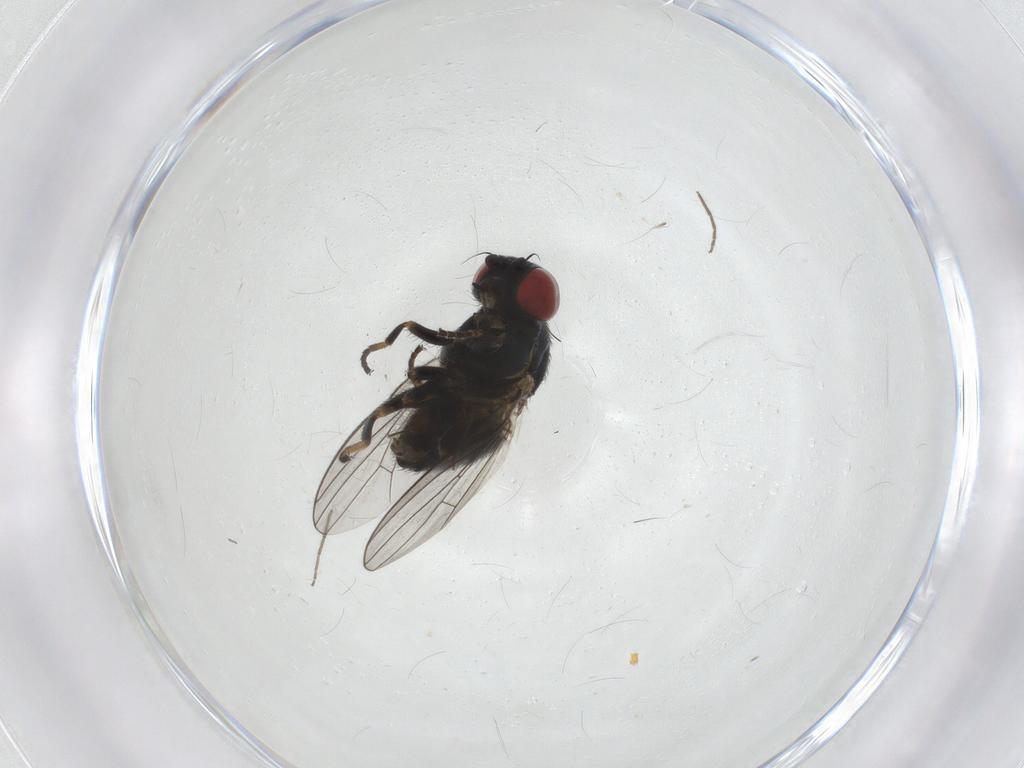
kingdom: Animalia
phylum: Arthropoda
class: Insecta
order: Diptera
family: Chamaemyiidae
